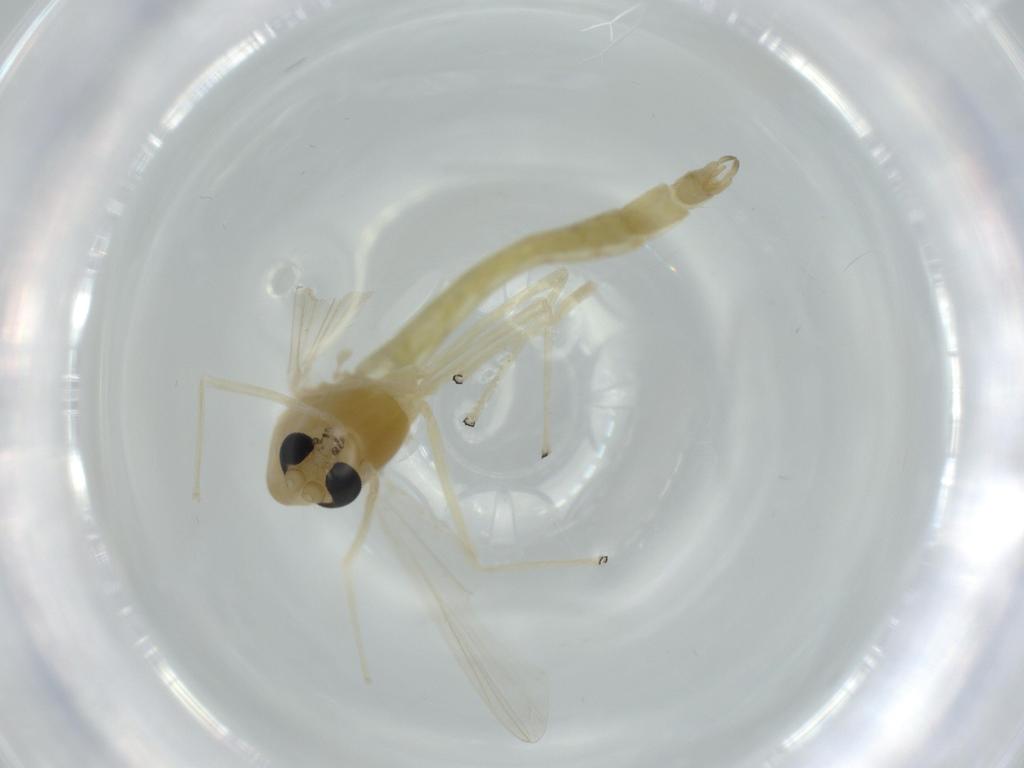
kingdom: Animalia
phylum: Arthropoda
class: Insecta
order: Diptera
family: Chironomidae
